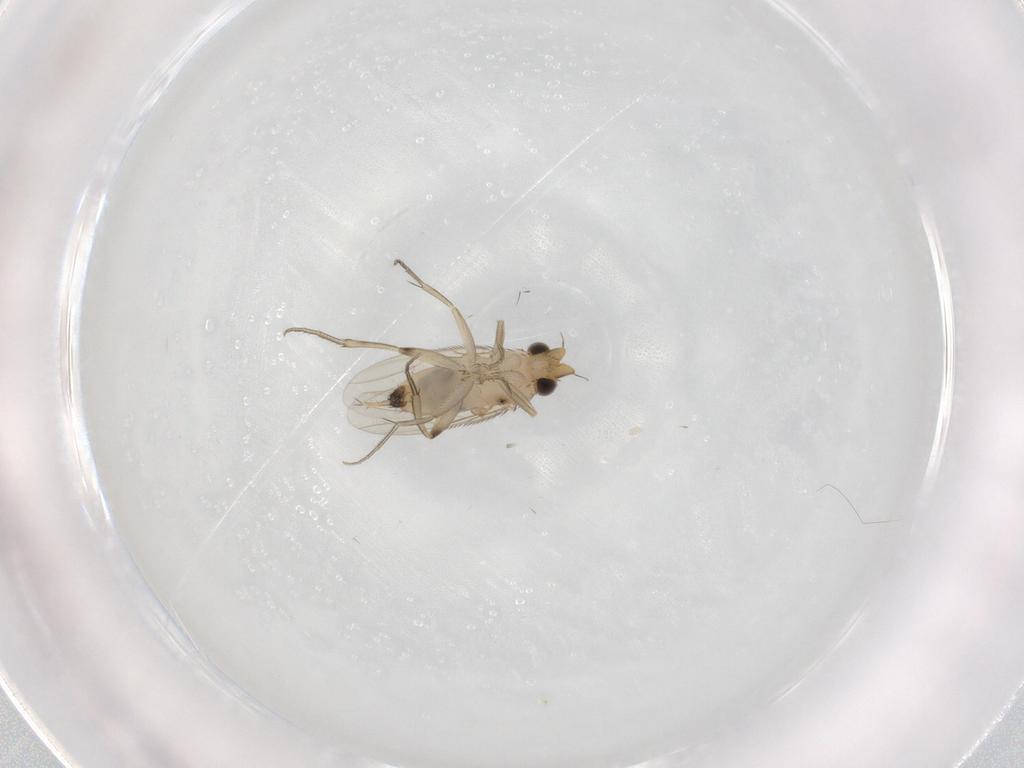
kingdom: Animalia
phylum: Arthropoda
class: Insecta
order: Diptera
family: Phoridae
